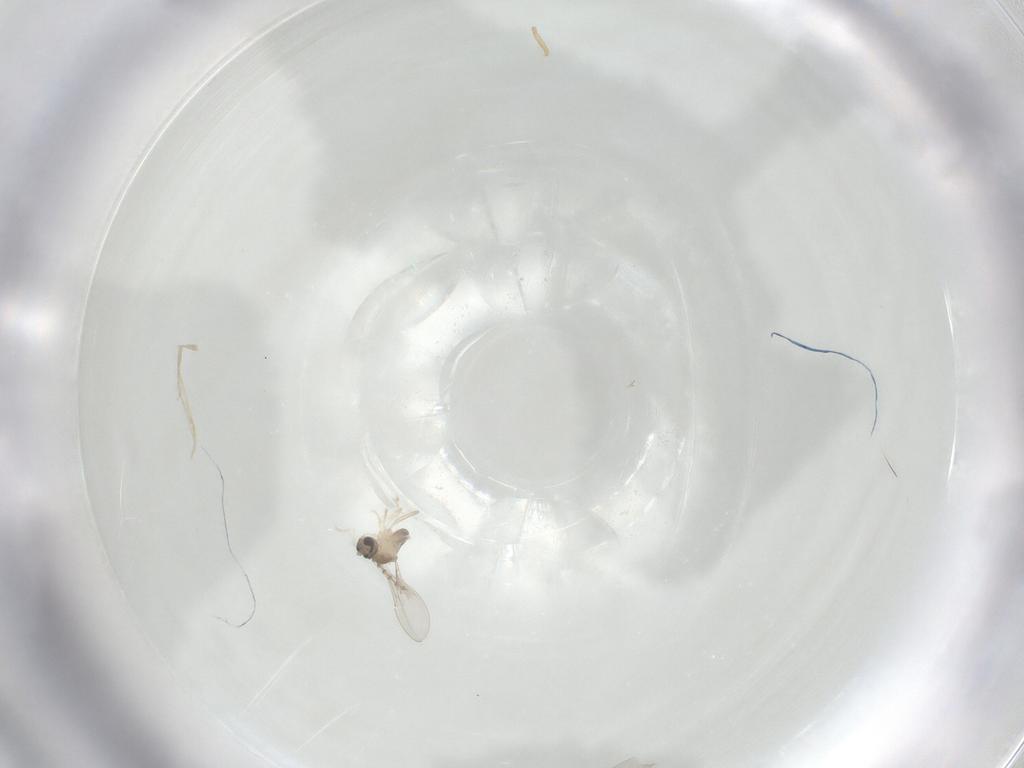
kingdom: Animalia
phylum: Arthropoda
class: Insecta
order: Diptera
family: Cecidomyiidae
